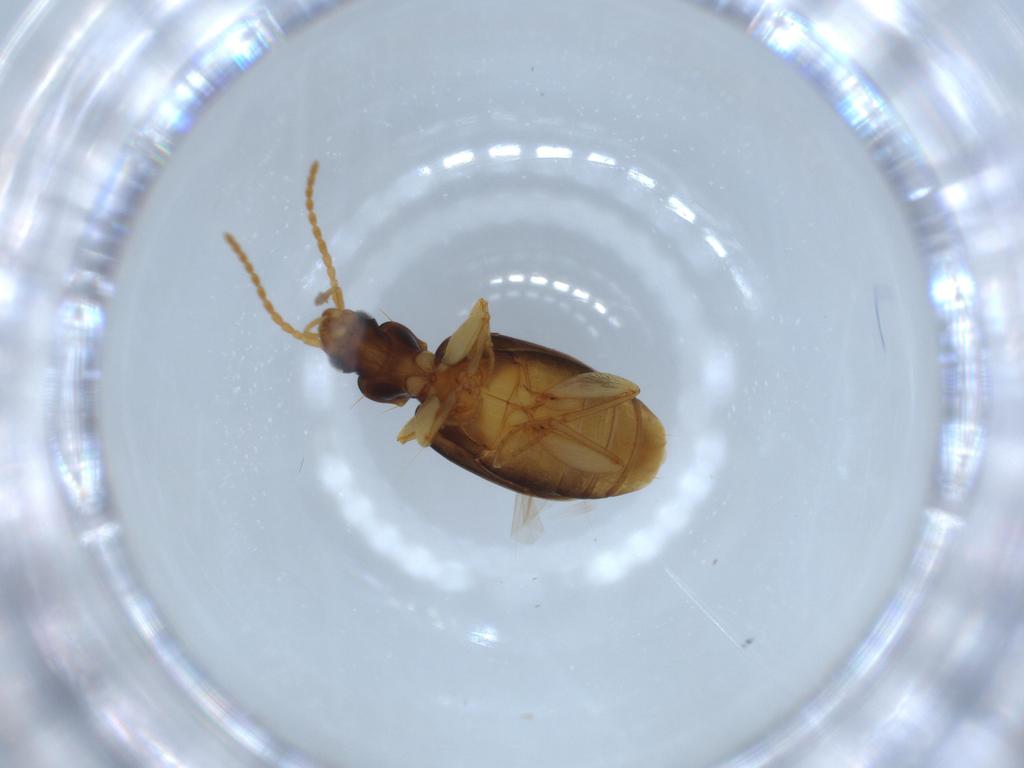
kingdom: Animalia
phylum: Arthropoda
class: Insecta
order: Coleoptera
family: Carabidae
